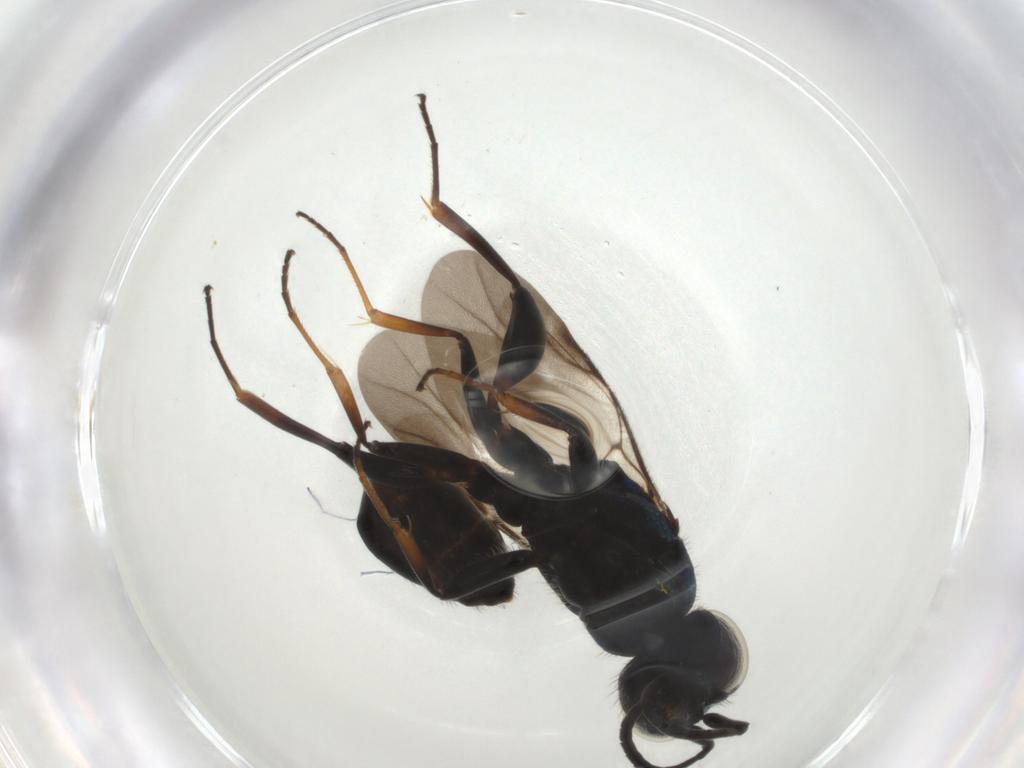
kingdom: Animalia
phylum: Arthropoda
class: Insecta
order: Hymenoptera
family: Chrysididae
